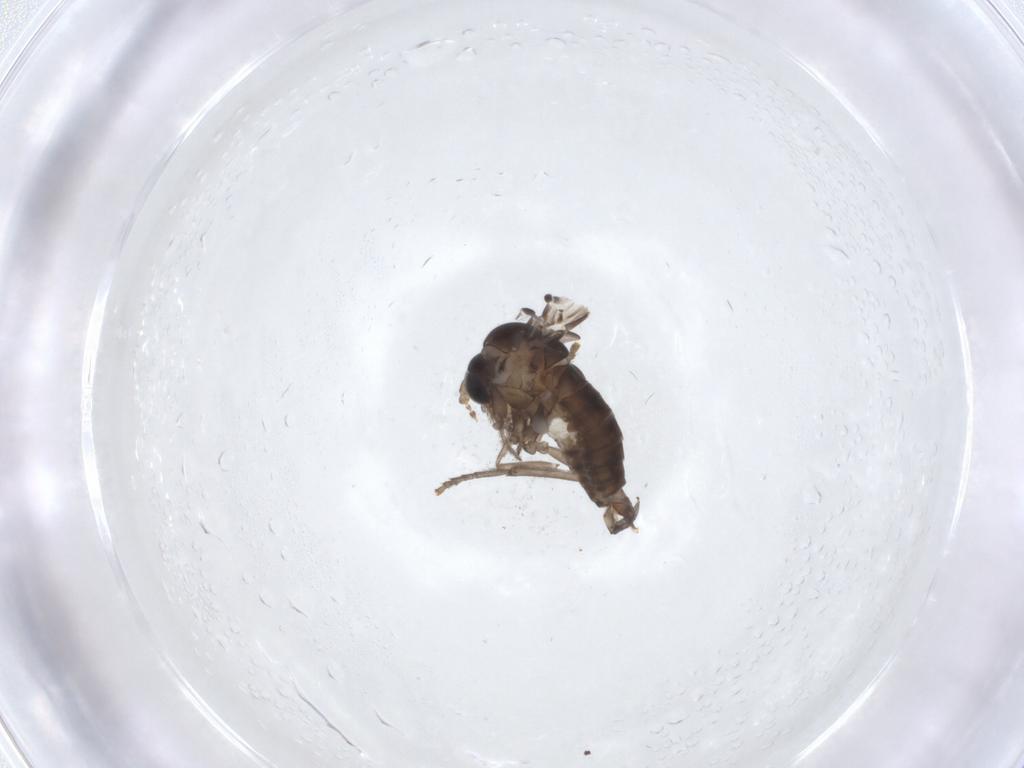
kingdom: Animalia
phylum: Arthropoda
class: Insecta
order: Diptera
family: Psychodidae
